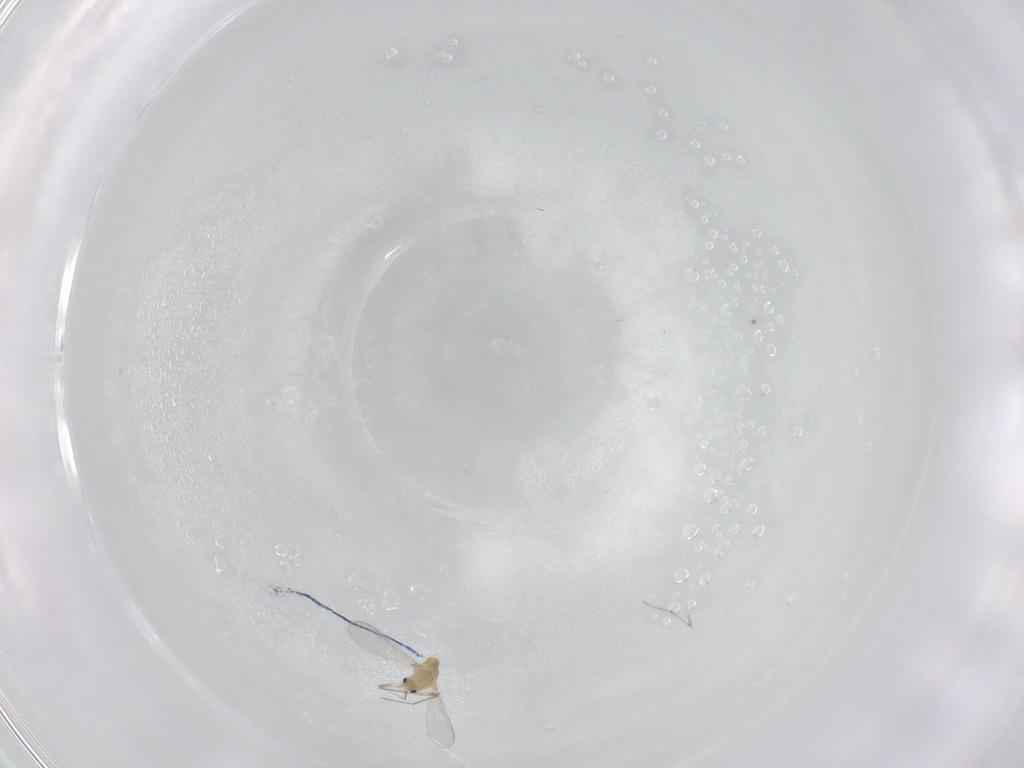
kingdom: Animalia
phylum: Arthropoda
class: Insecta
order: Diptera
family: Chironomidae
